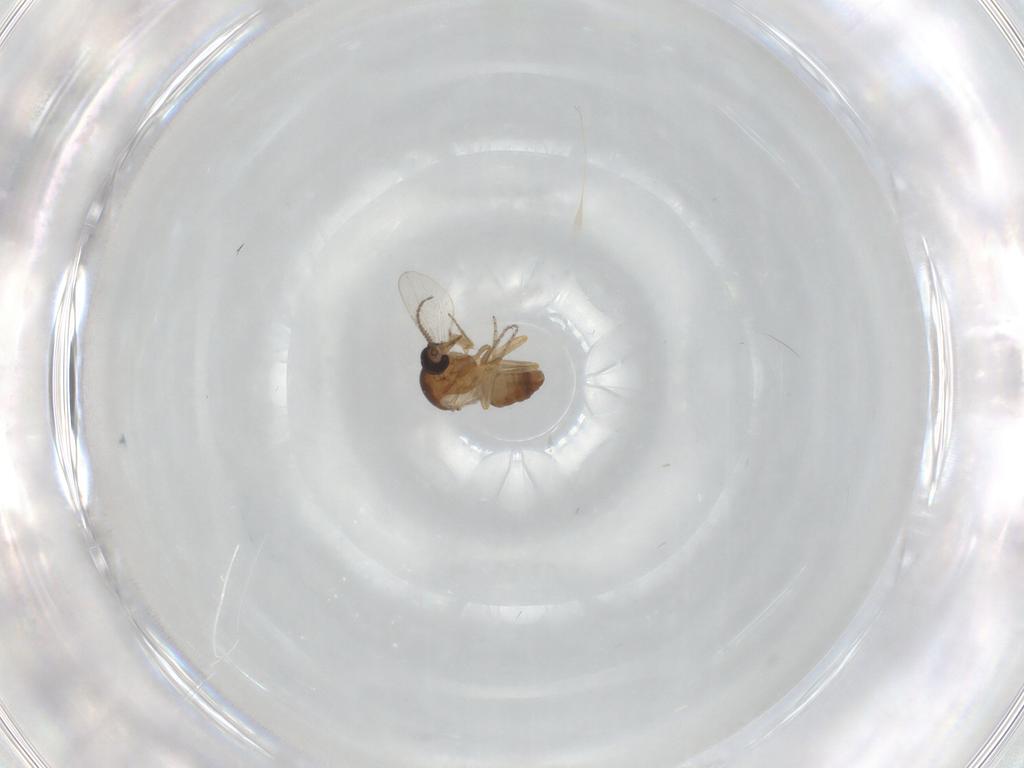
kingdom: Animalia
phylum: Arthropoda
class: Insecta
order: Diptera
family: Ceratopogonidae
